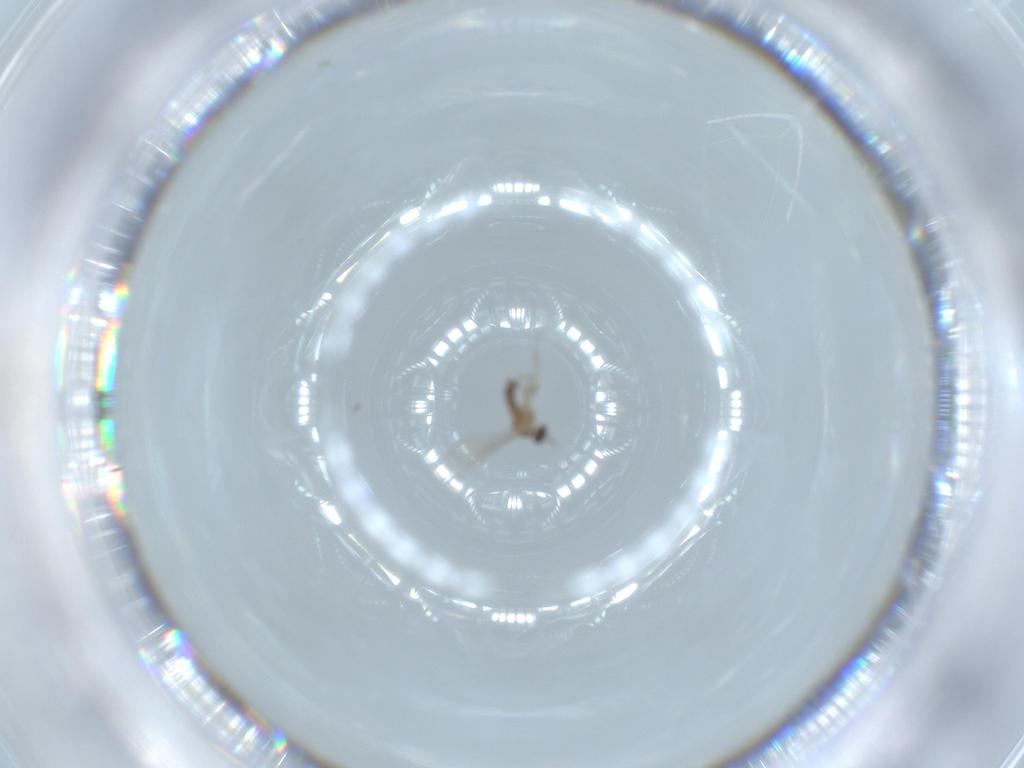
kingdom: Animalia
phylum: Arthropoda
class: Insecta
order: Diptera
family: Cecidomyiidae
